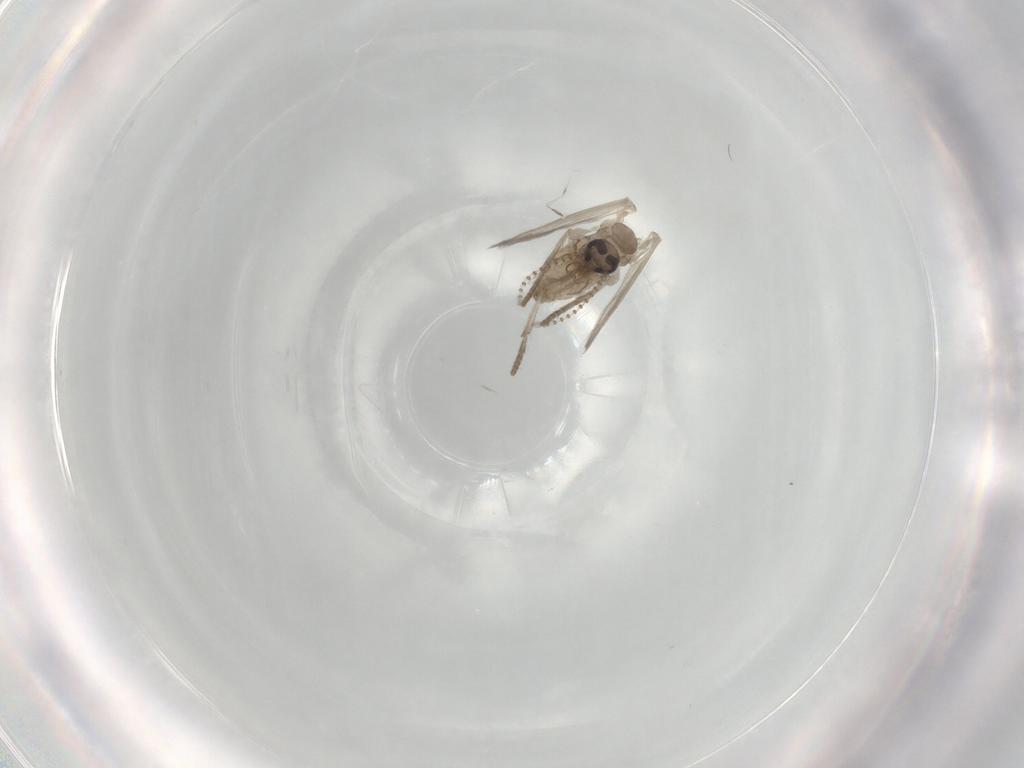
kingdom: Animalia
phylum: Arthropoda
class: Insecta
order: Diptera
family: Psychodidae
